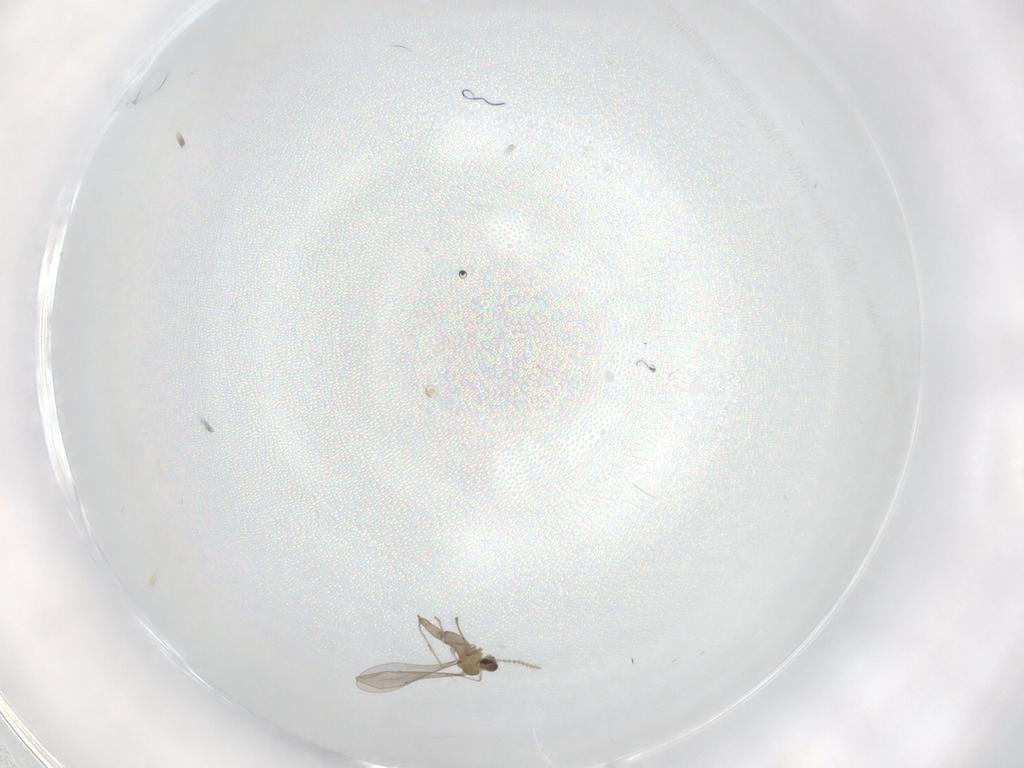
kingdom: Animalia
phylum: Arthropoda
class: Insecta
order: Diptera
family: Cecidomyiidae
